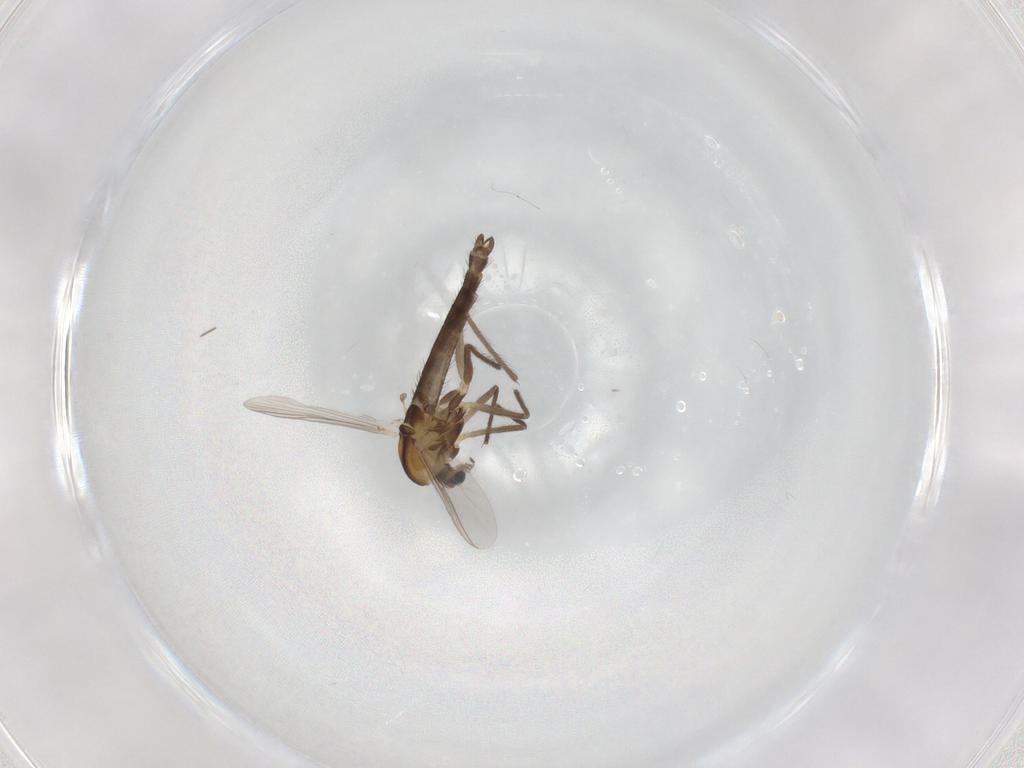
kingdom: Animalia
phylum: Arthropoda
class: Insecta
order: Diptera
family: Chironomidae
